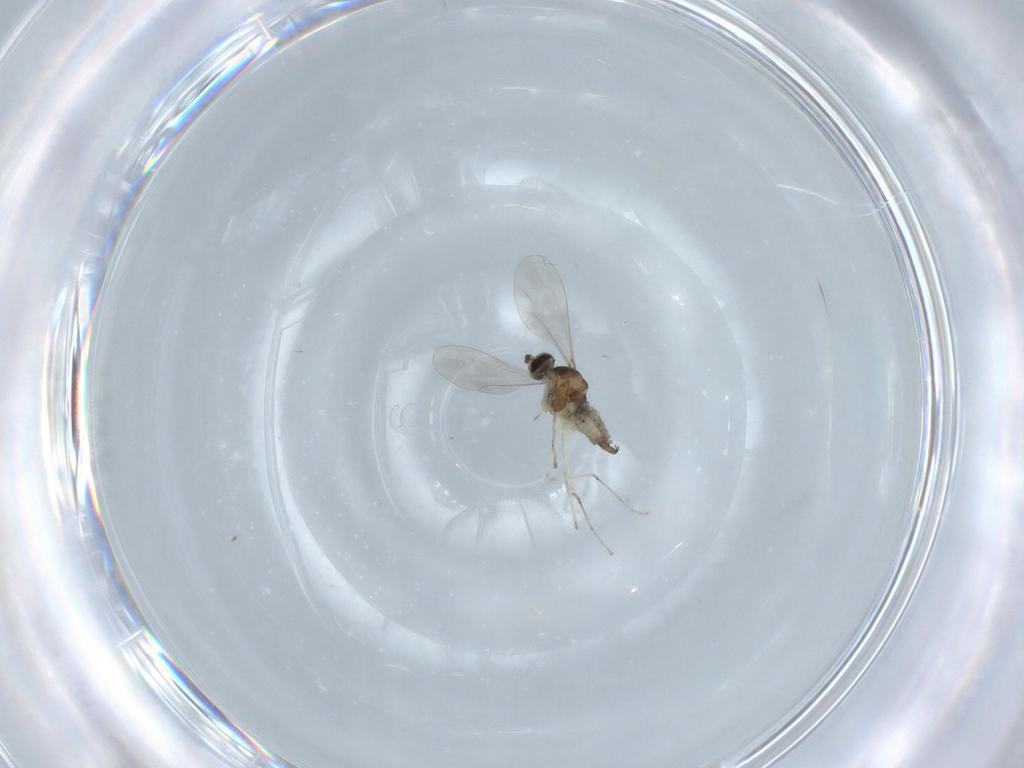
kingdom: Animalia
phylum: Arthropoda
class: Insecta
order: Diptera
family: Cecidomyiidae
